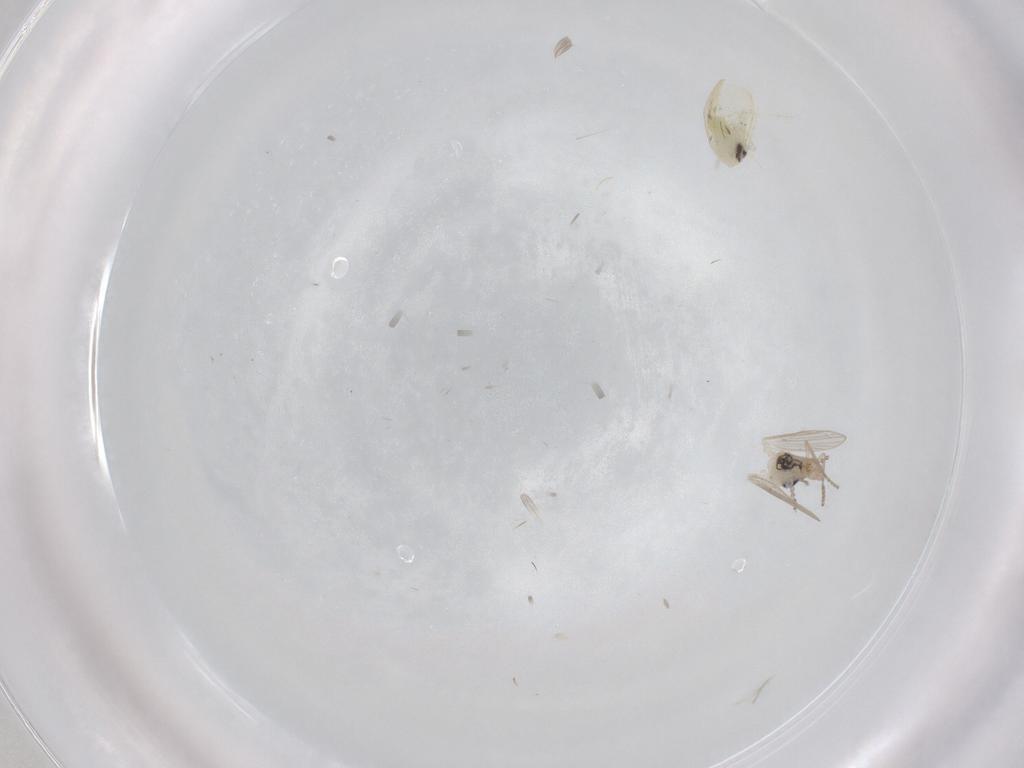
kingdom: Animalia
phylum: Arthropoda
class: Insecta
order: Diptera
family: Psychodidae
